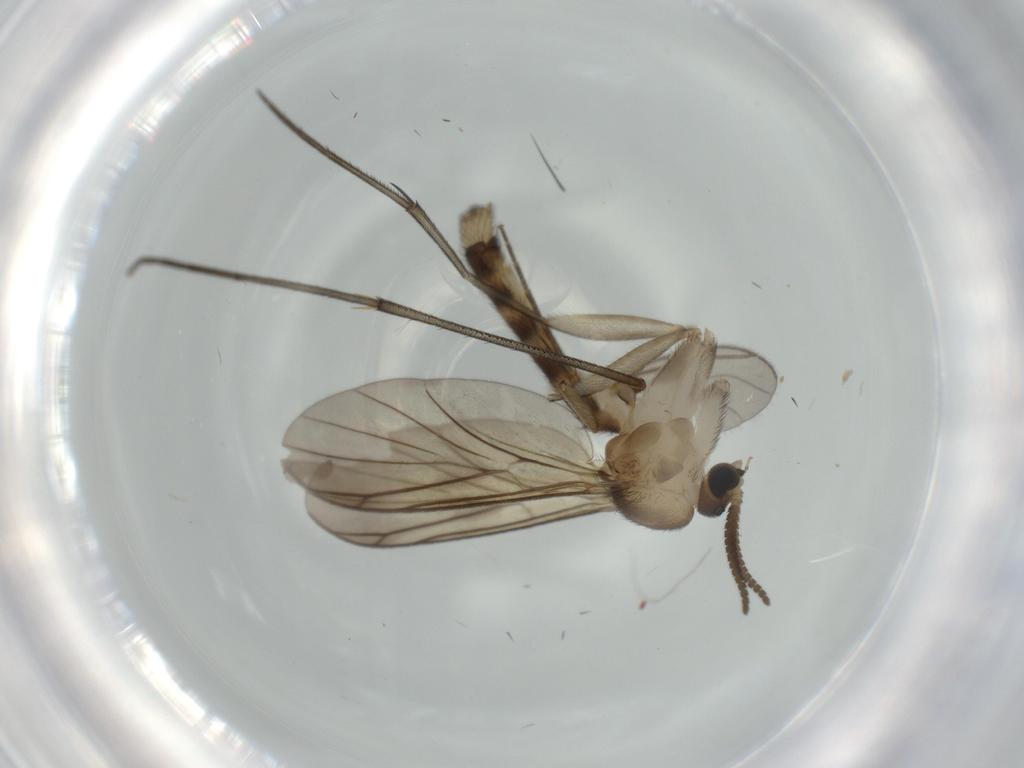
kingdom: Animalia
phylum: Arthropoda
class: Insecta
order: Diptera
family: Mycetophilidae
